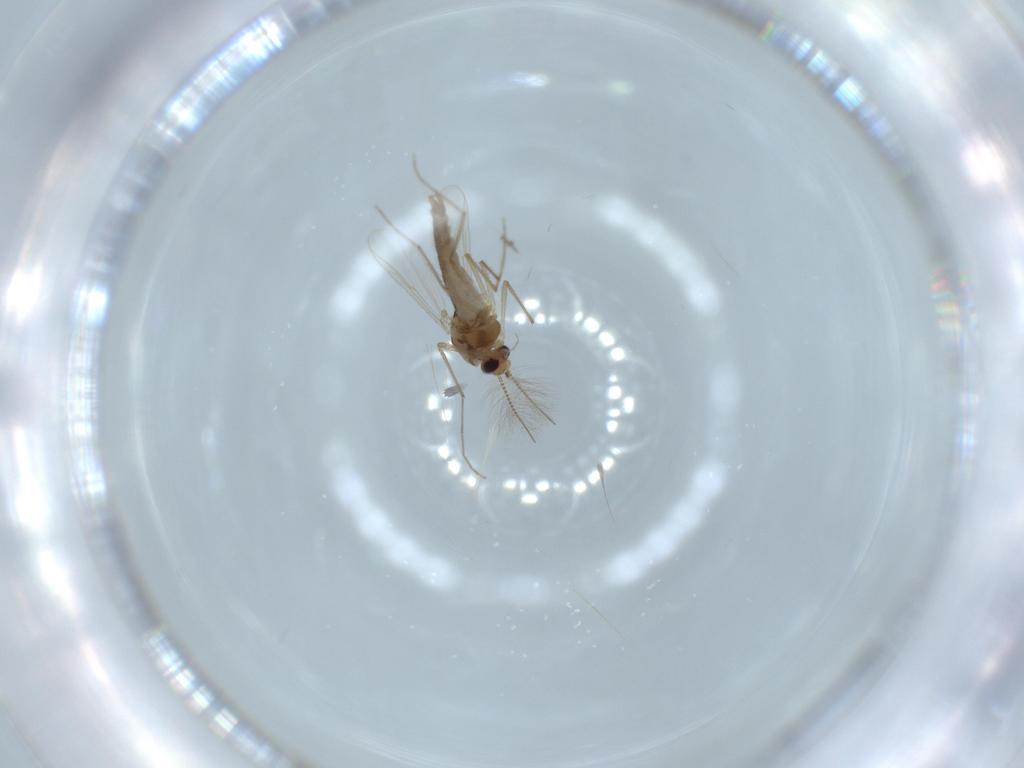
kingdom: Animalia
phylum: Arthropoda
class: Insecta
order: Diptera
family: Chironomidae
